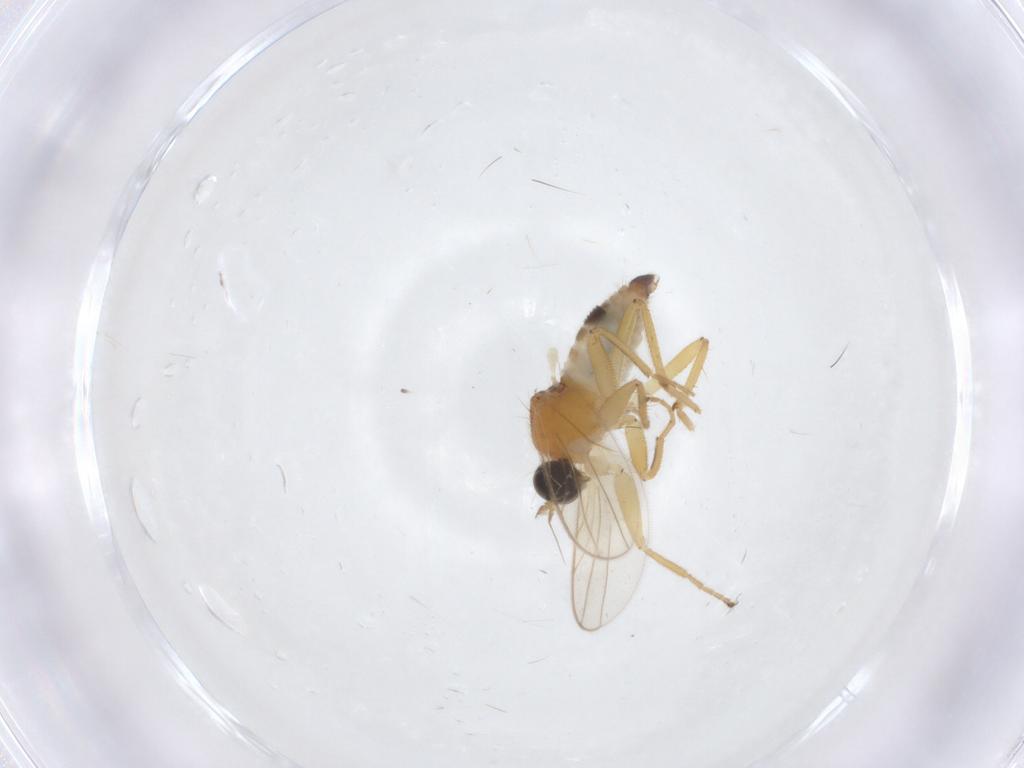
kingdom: Animalia
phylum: Arthropoda
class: Insecta
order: Diptera
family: Hybotidae
